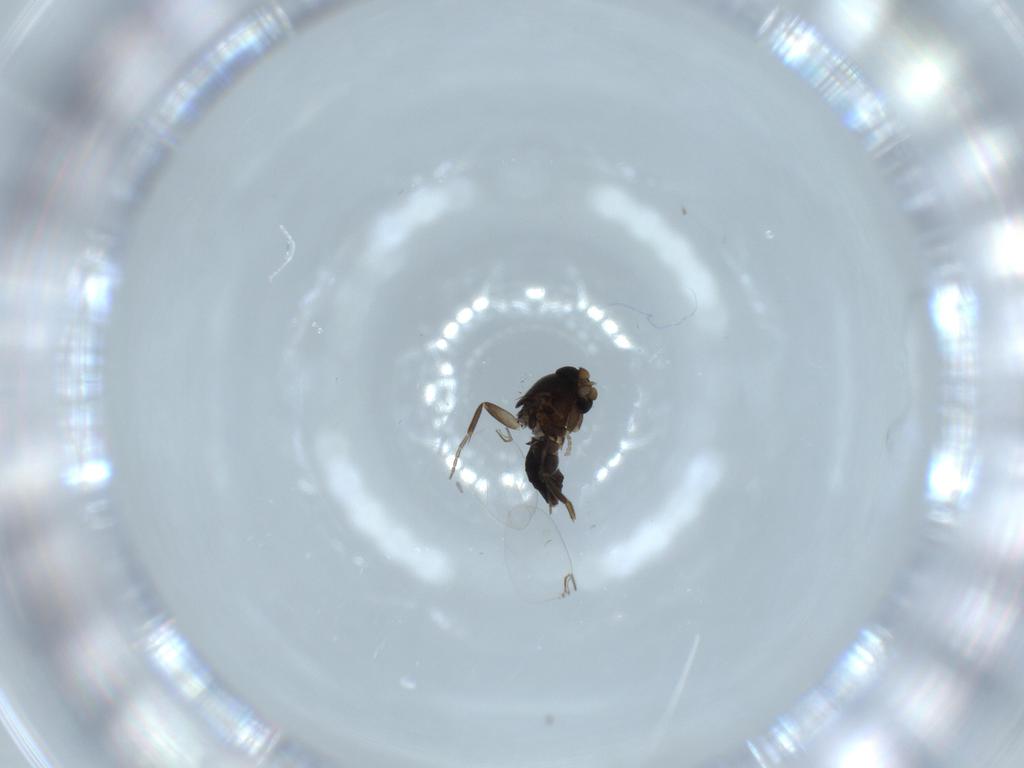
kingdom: Animalia
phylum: Arthropoda
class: Insecta
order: Diptera
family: Phoridae
